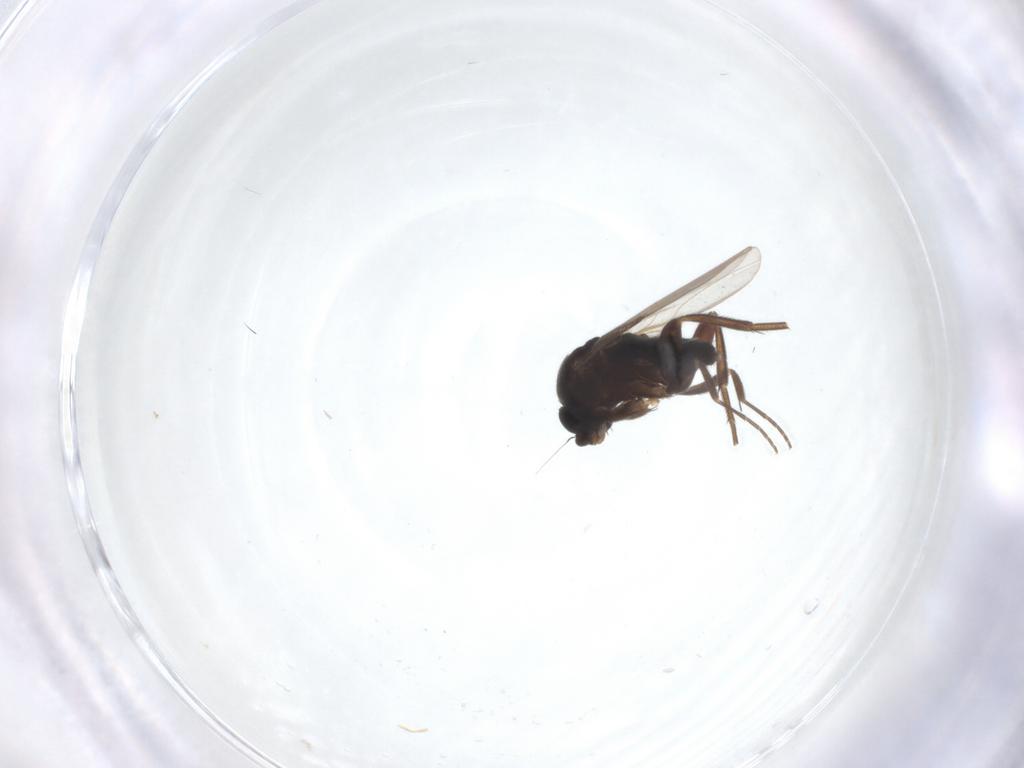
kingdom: Animalia
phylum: Arthropoda
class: Insecta
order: Diptera
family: Phoridae
